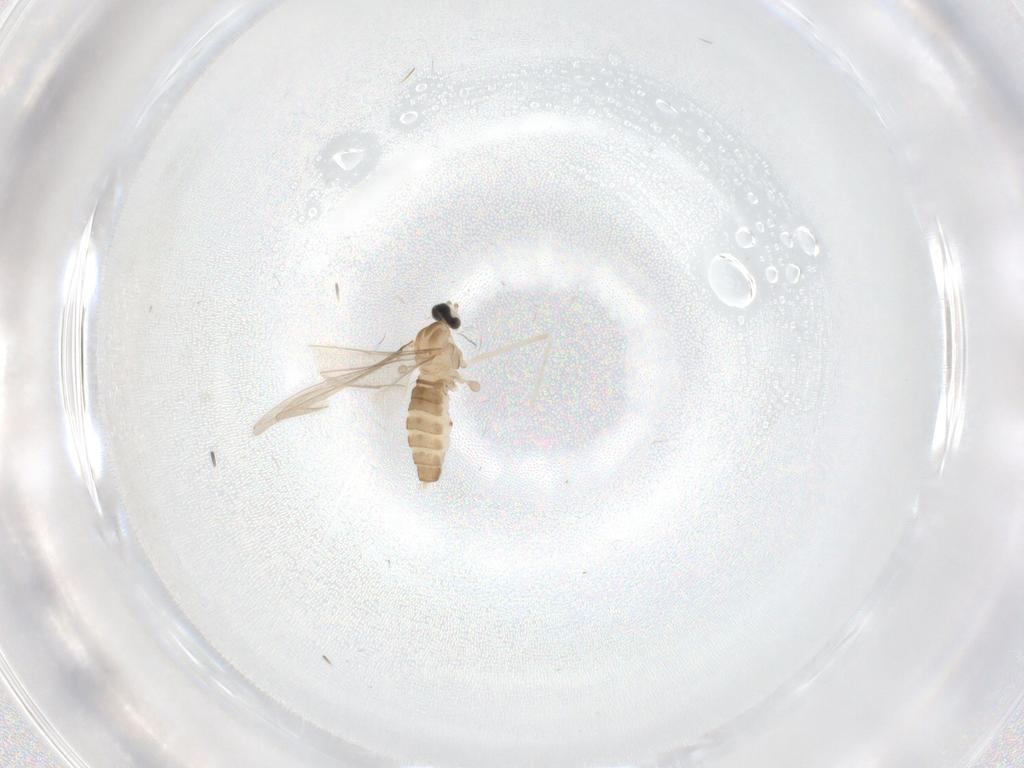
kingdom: Animalia
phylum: Arthropoda
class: Insecta
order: Diptera
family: Cecidomyiidae
